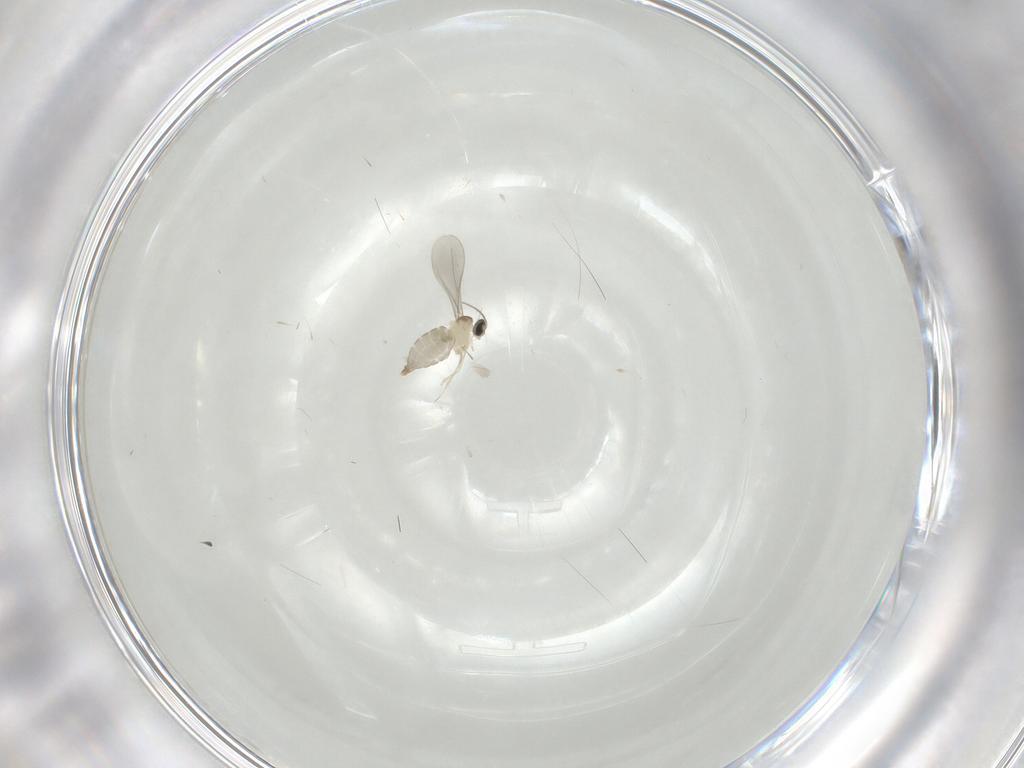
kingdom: Animalia
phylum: Arthropoda
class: Insecta
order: Diptera
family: Cecidomyiidae
